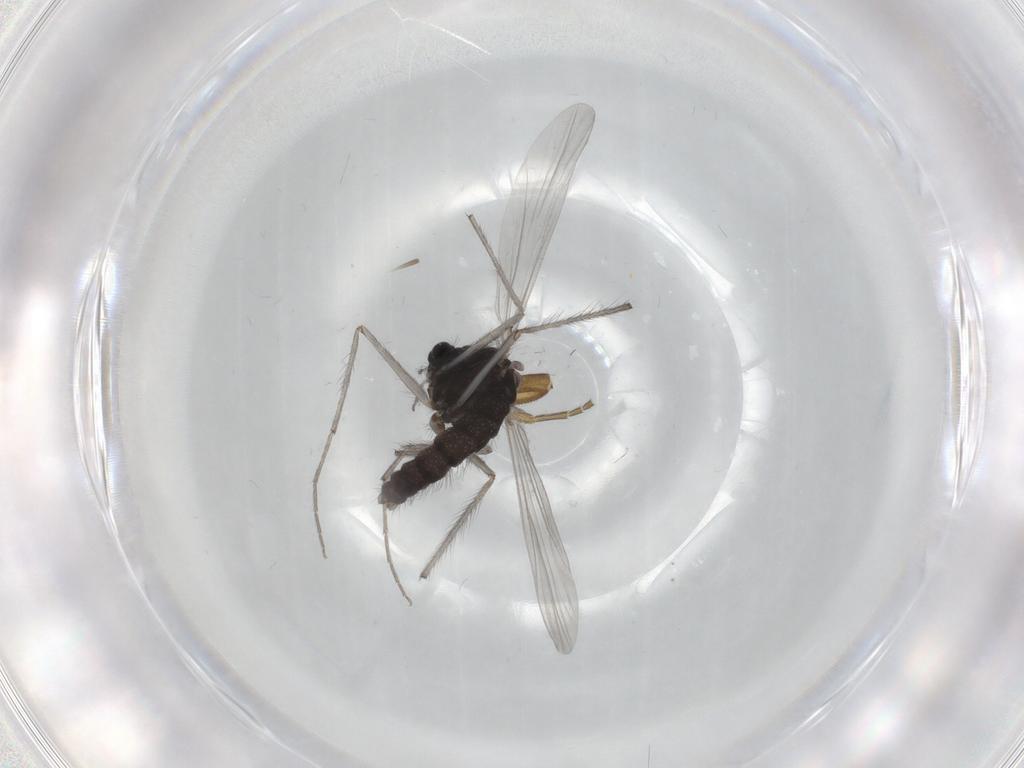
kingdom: Animalia
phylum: Arthropoda
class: Insecta
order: Diptera
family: Chironomidae
